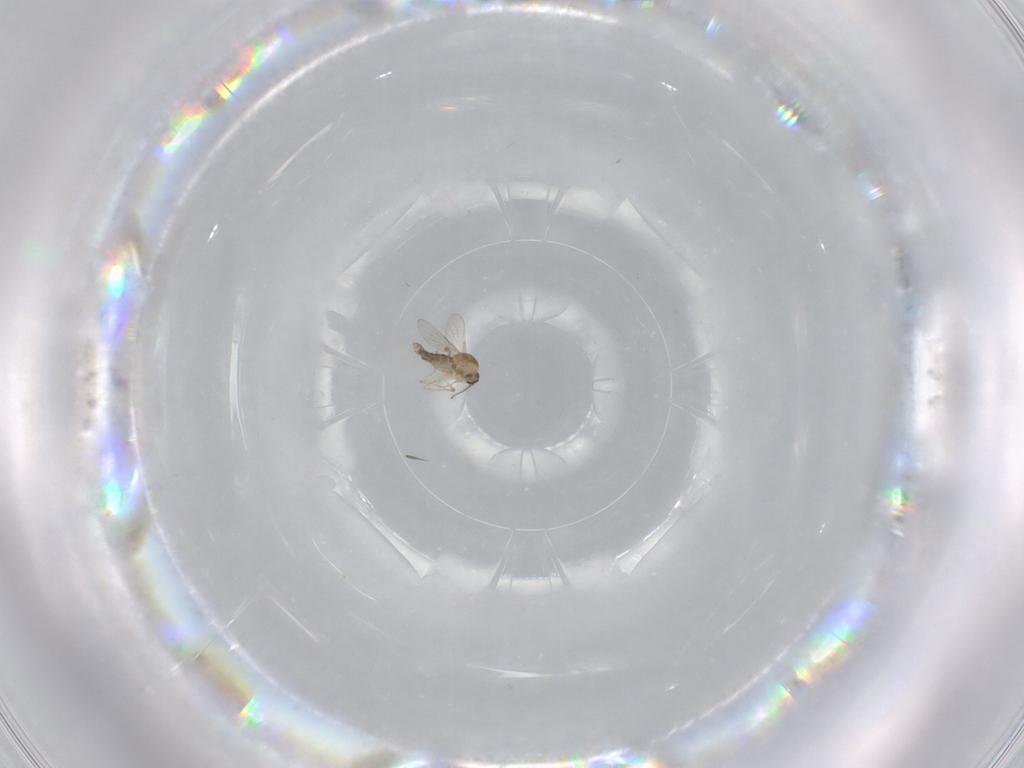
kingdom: Animalia
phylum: Arthropoda
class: Insecta
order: Diptera
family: Ceratopogonidae
